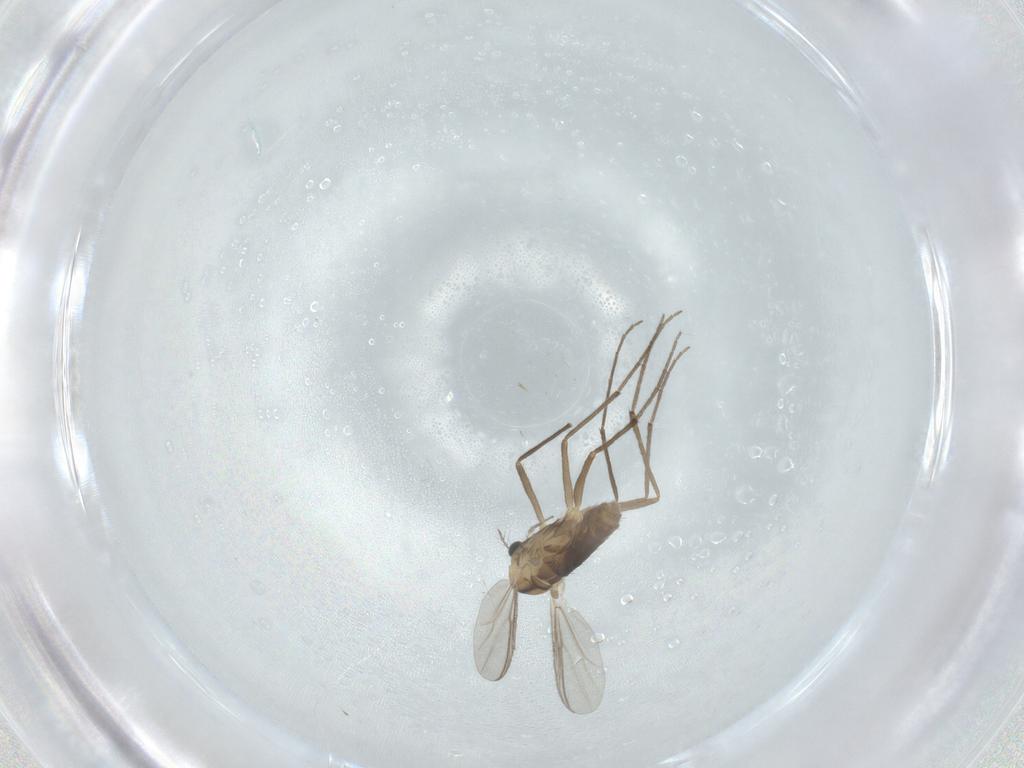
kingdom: Animalia
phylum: Arthropoda
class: Insecta
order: Diptera
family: Chironomidae
